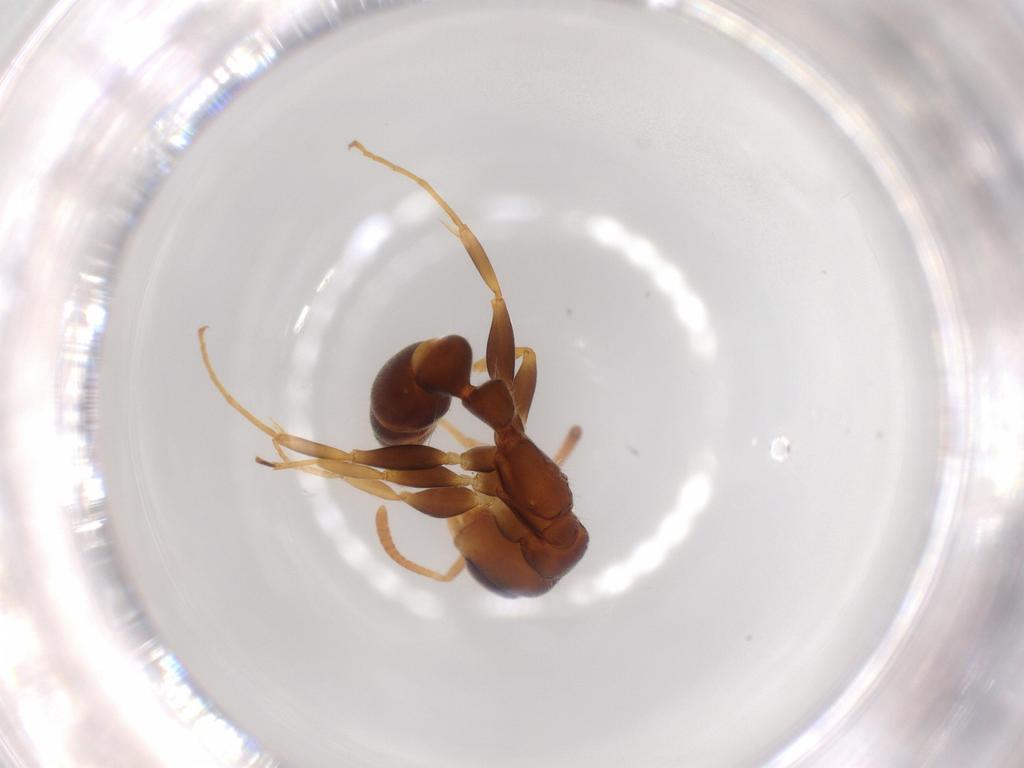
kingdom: Animalia
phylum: Arthropoda
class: Insecta
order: Hymenoptera
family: Formicidae
